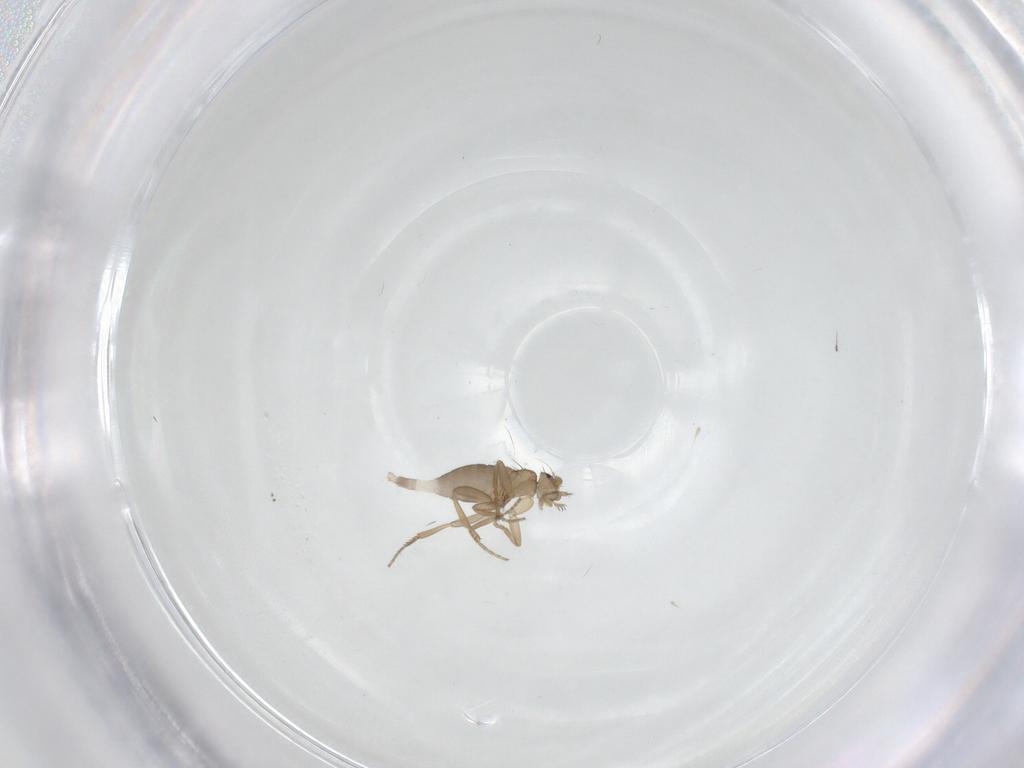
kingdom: Animalia
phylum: Arthropoda
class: Insecta
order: Diptera
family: Phoridae
